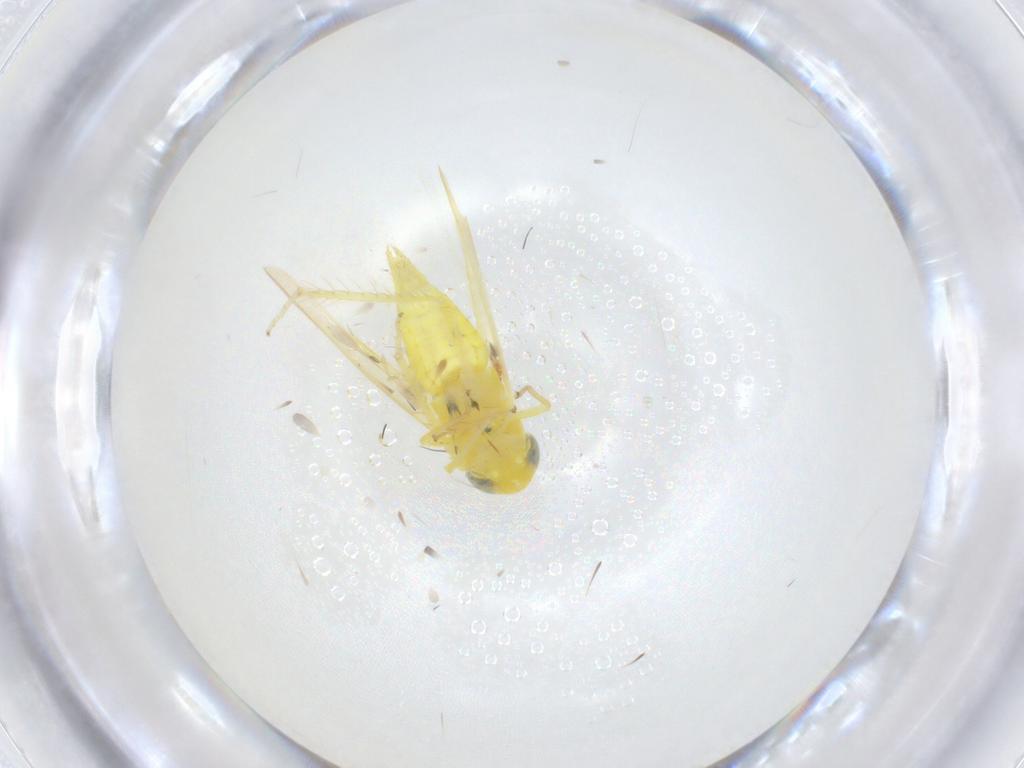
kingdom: Animalia
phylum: Arthropoda
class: Insecta
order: Hemiptera
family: Cicadellidae
